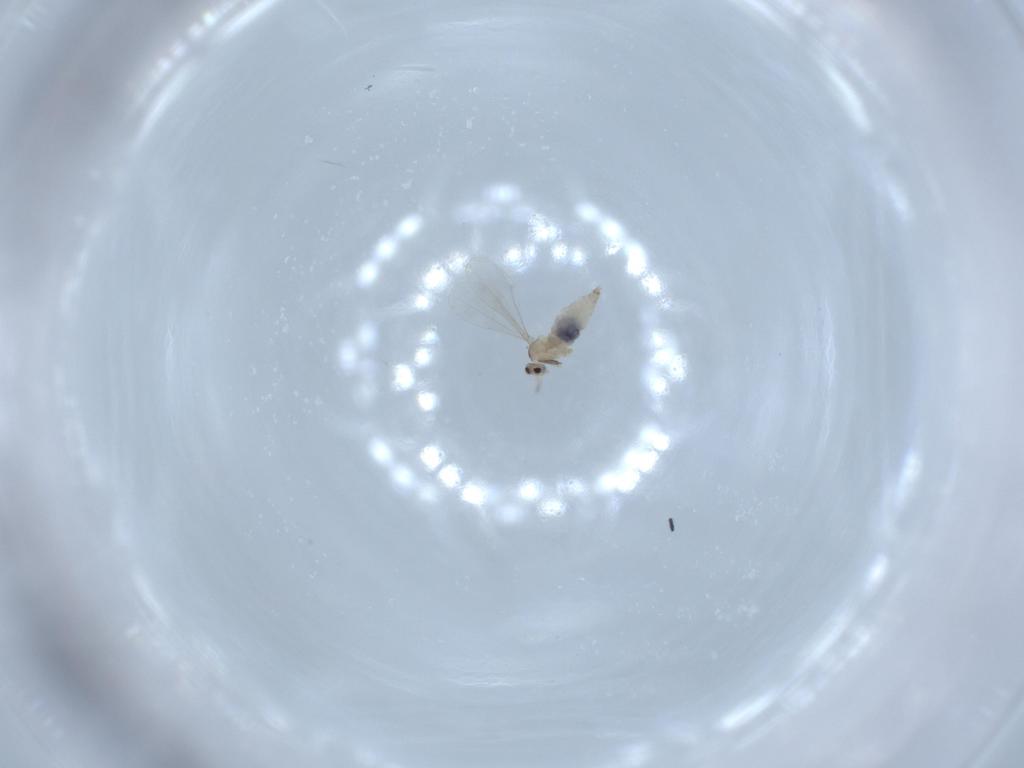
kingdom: Animalia
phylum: Arthropoda
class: Insecta
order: Diptera
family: Cecidomyiidae
